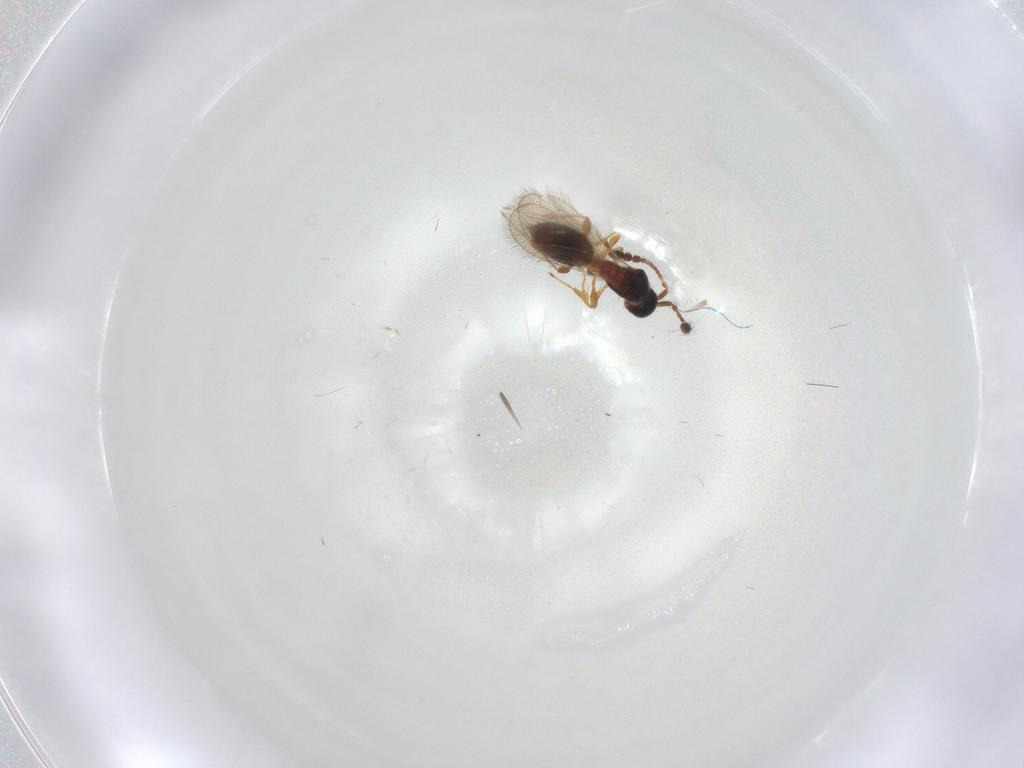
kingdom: Animalia
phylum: Arthropoda
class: Insecta
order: Hymenoptera
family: Diapriidae
